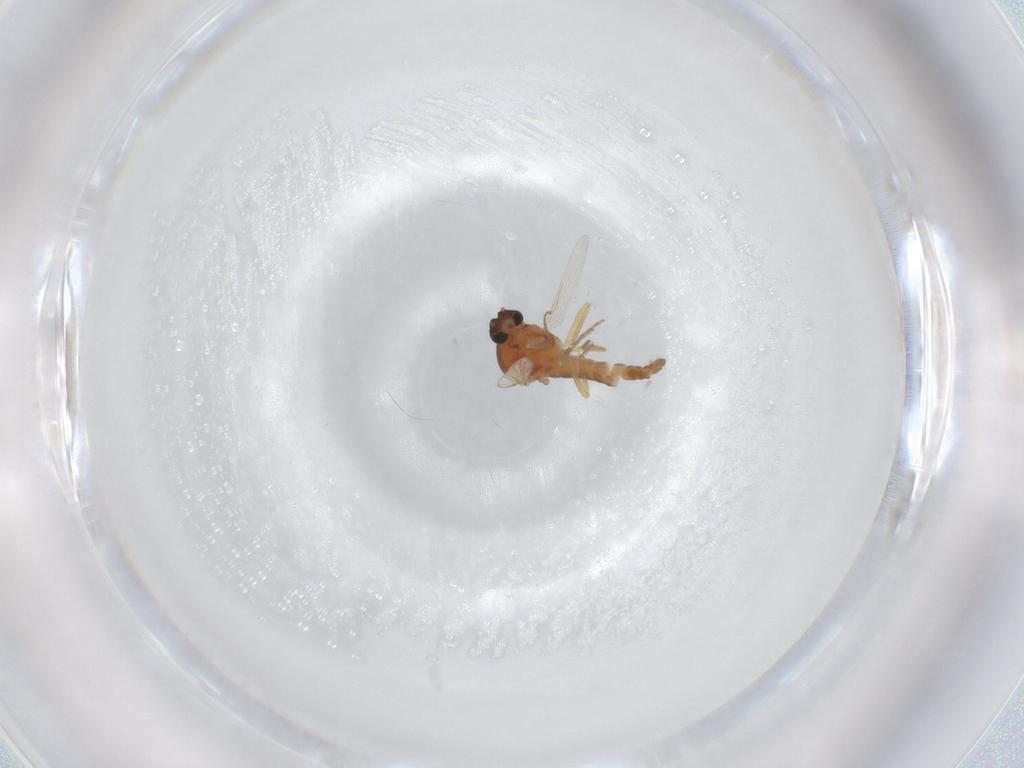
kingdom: Animalia
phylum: Arthropoda
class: Insecta
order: Diptera
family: Ceratopogonidae
